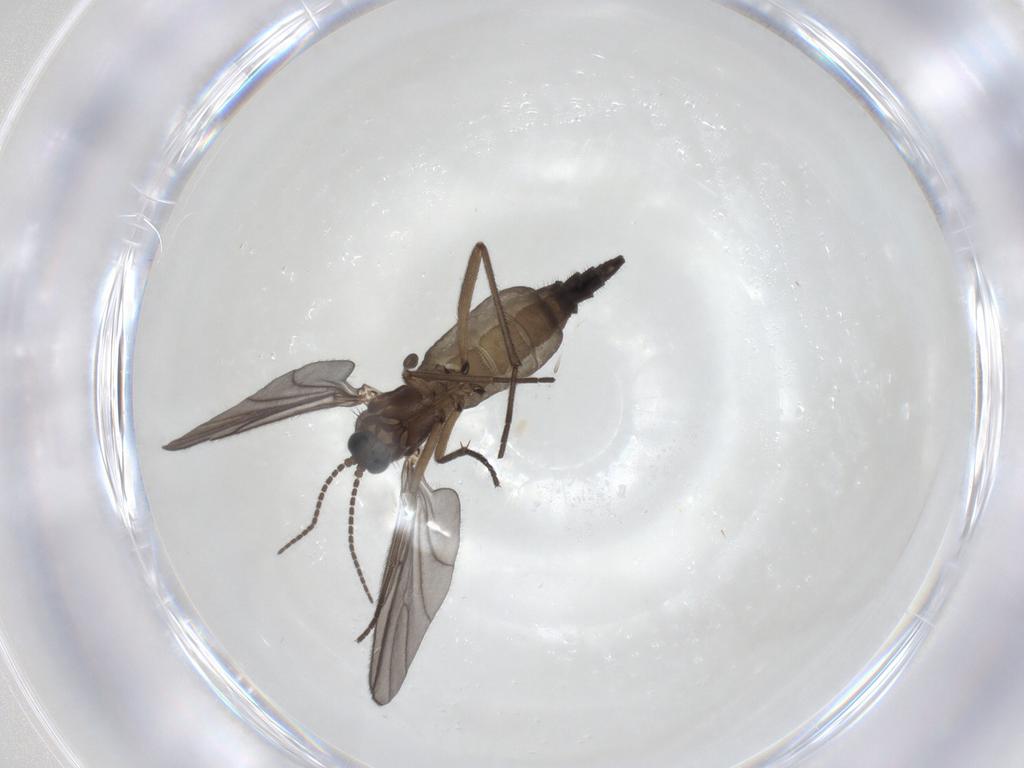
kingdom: Animalia
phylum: Arthropoda
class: Insecta
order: Diptera
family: Sciaridae
